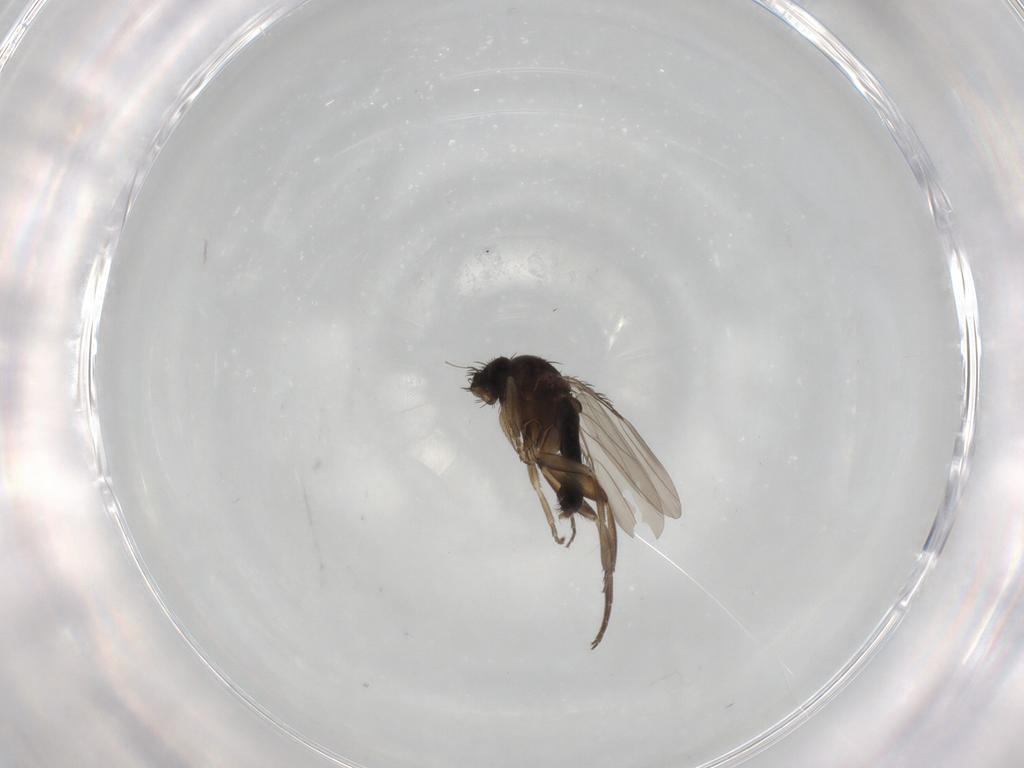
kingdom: Animalia
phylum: Arthropoda
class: Insecta
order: Diptera
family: Phoridae
